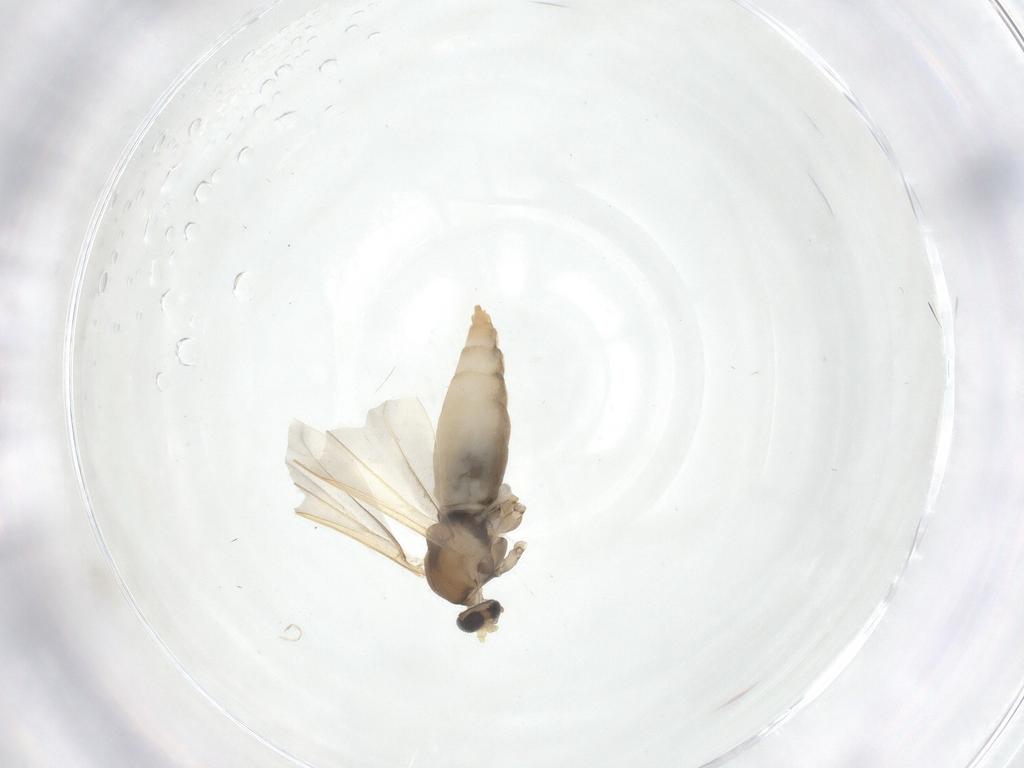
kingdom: Animalia
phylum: Arthropoda
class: Insecta
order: Diptera
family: Cecidomyiidae
